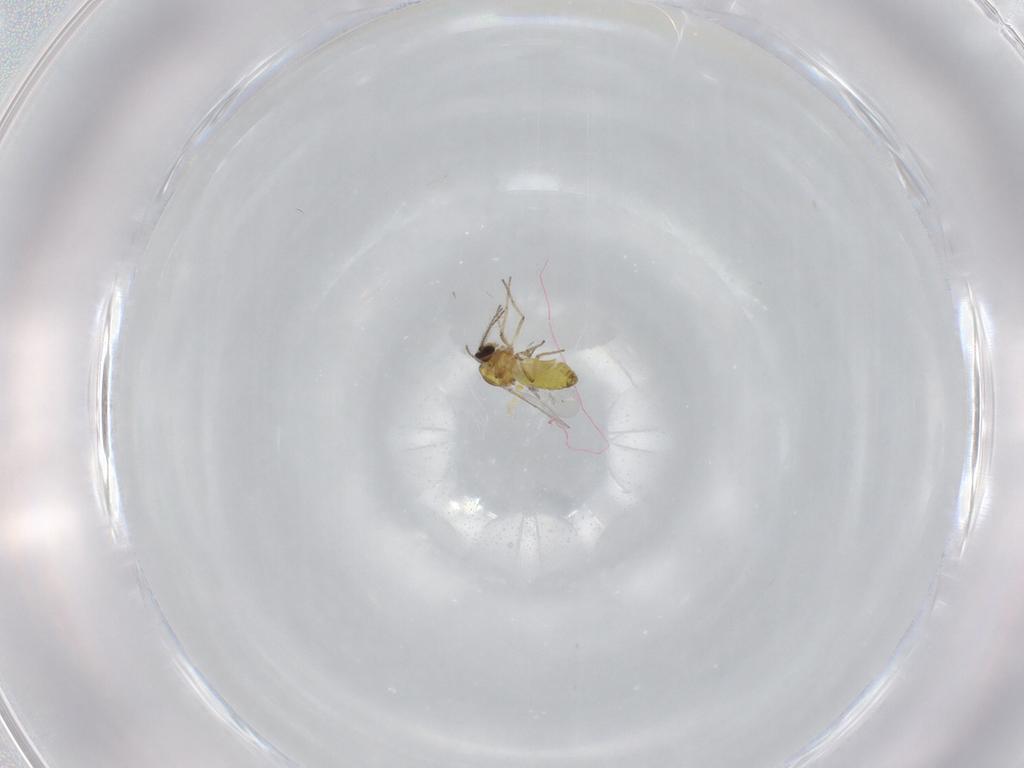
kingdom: Animalia
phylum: Arthropoda
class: Insecta
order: Diptera
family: Ceratopogonidae
